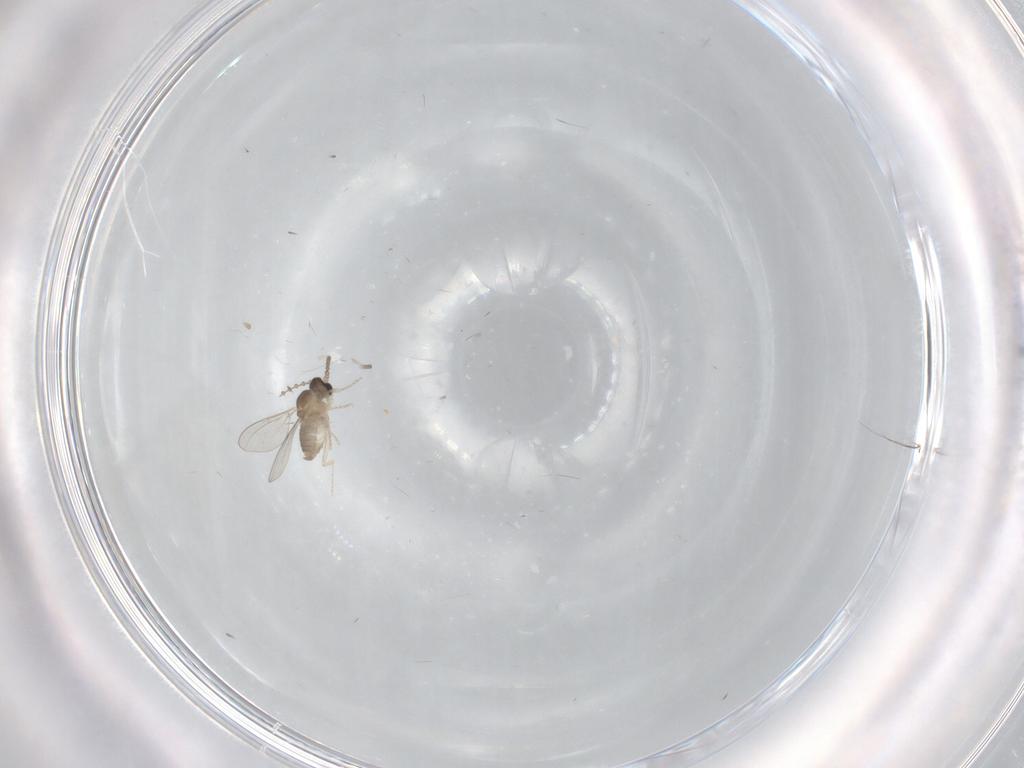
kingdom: Animalia
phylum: Arthropoda
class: Insecta
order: Diptera
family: Cecidomyiidae
